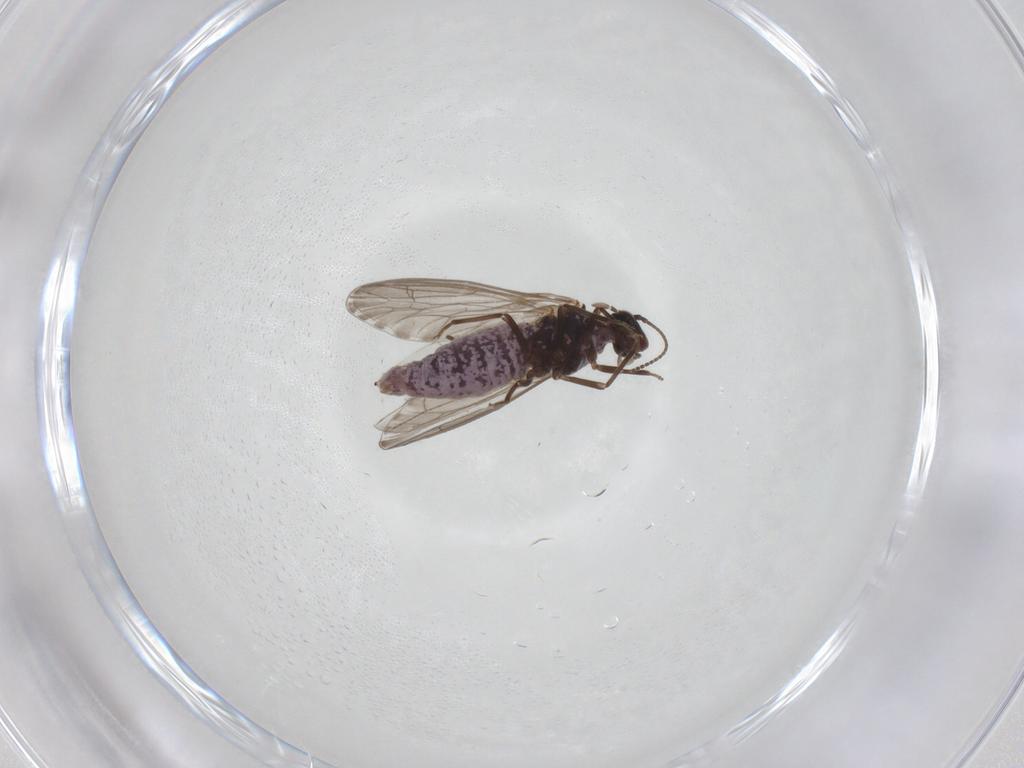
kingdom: Animalia
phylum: Arthropoda
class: Insecta
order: Neuroptera
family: Coniopterygidae
